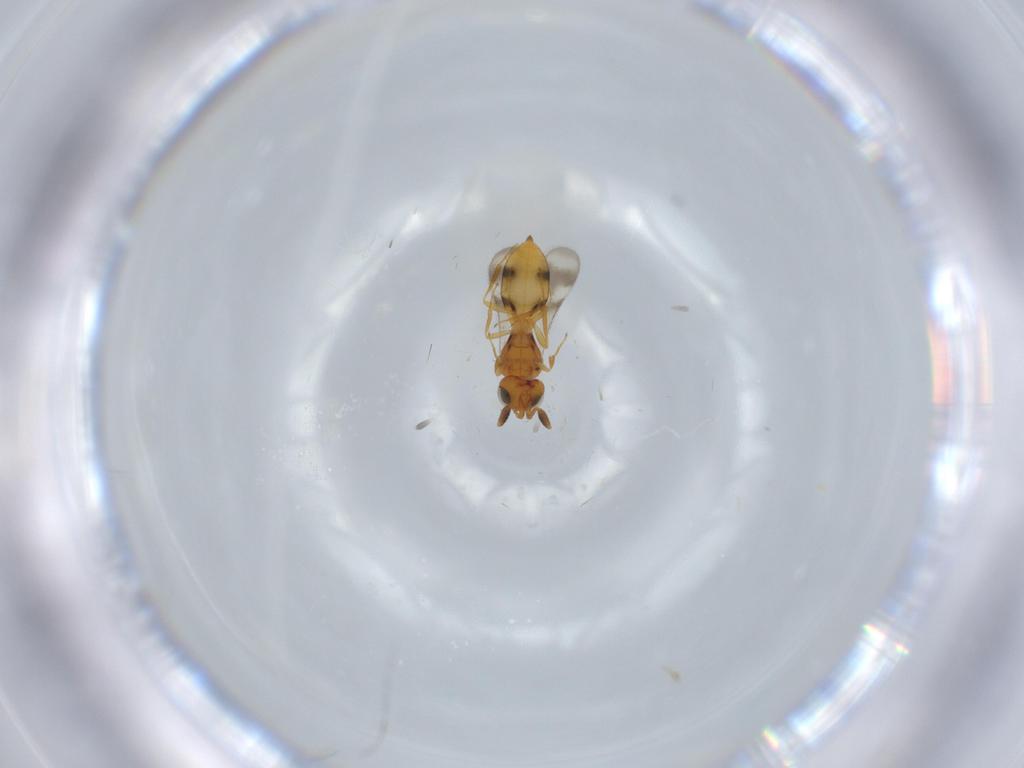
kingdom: Animalia
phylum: Arthropoda
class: Insecta
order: Hymenoptera
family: Scelionidae
